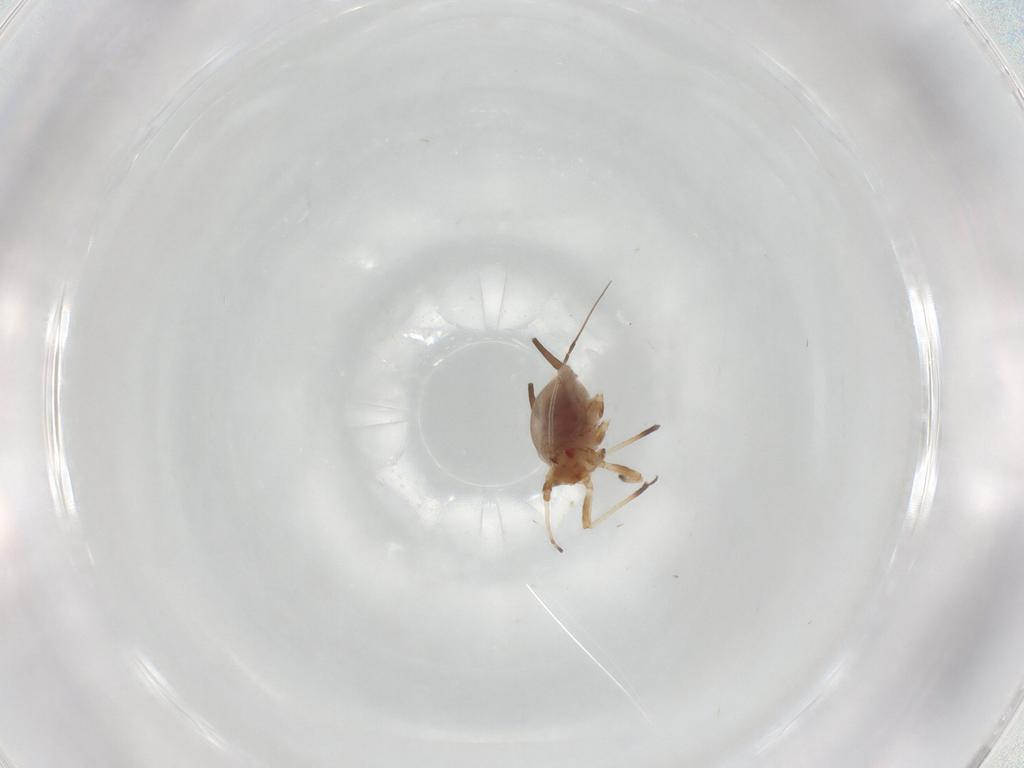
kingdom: Animalia
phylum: Arthropoda
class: Insecta
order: Hemiptera
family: Aphididae
